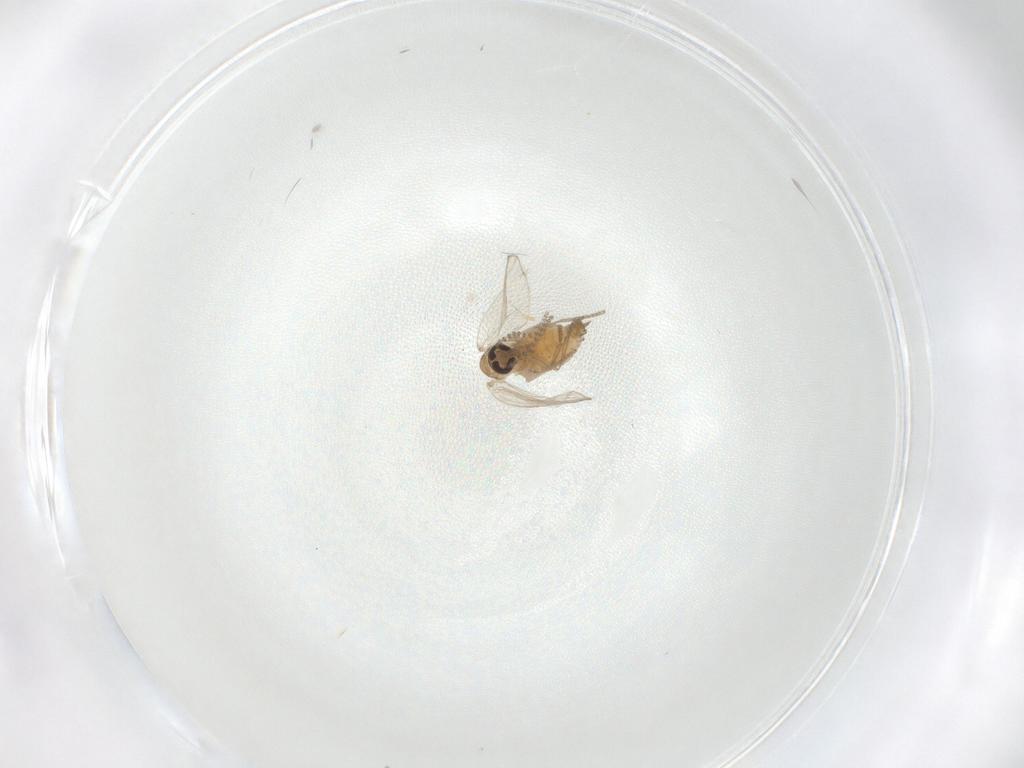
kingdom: Animalia
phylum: Arthropoda
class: Insecta
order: Diptera
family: Psychodidae
